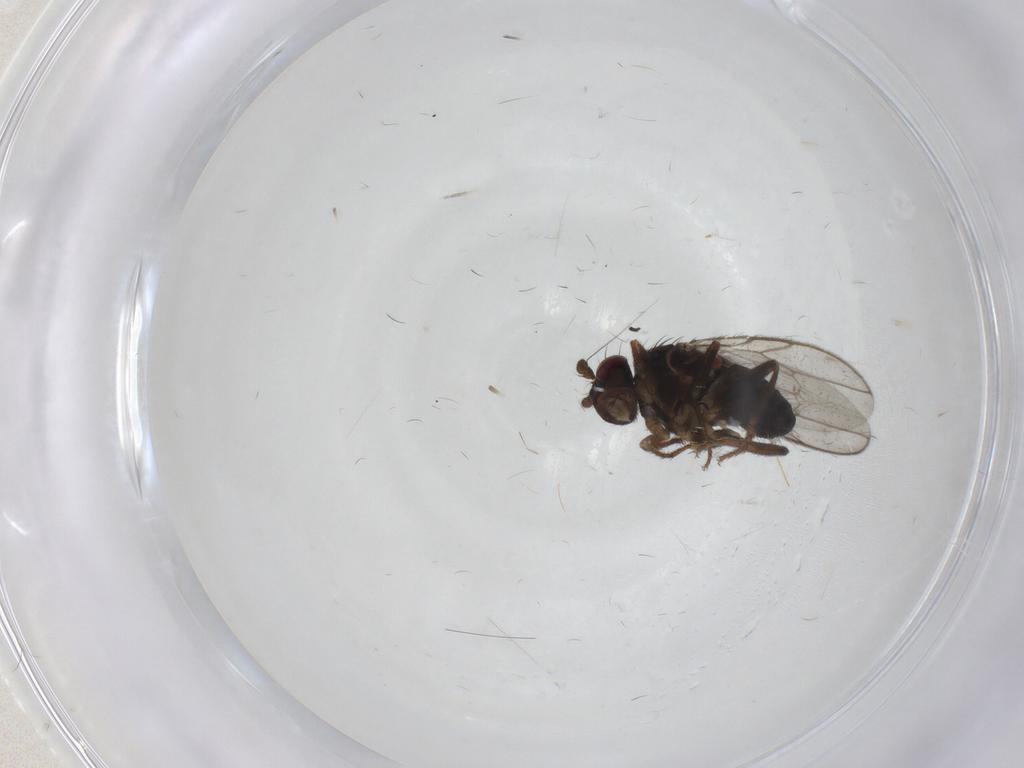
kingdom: Animalia
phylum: Arthropoda
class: Insecta
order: Diptera
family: Sphaeroceridae
